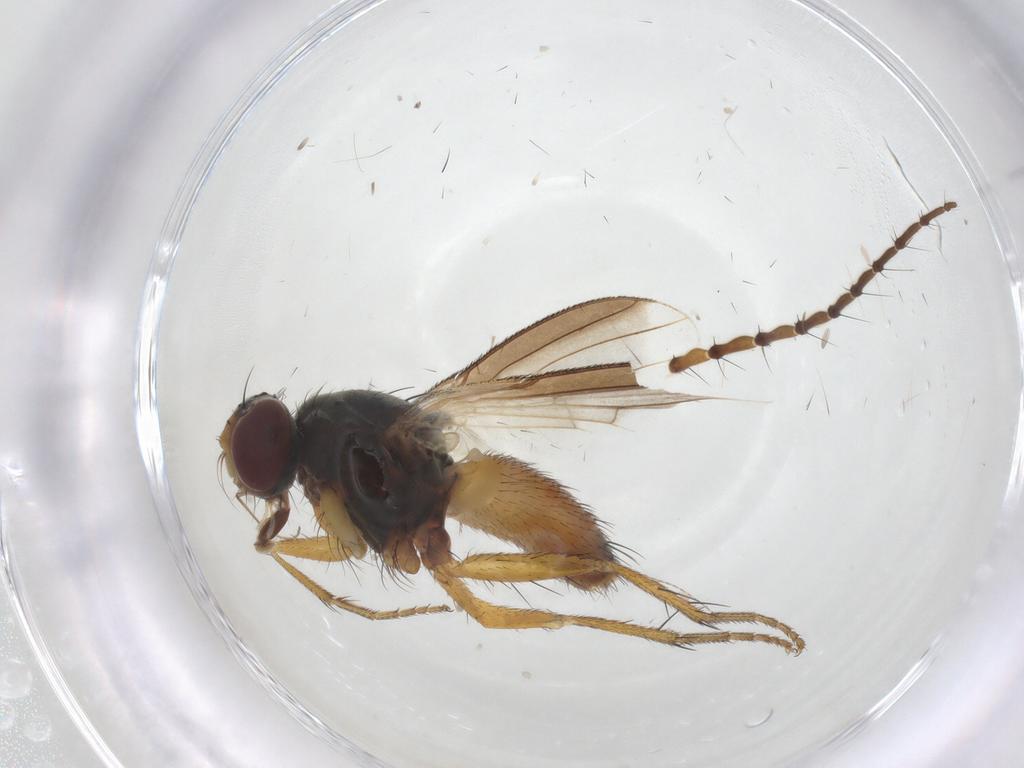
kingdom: Animalia
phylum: Arthropoda
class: Insecta
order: Diptera
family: Tipulidae
